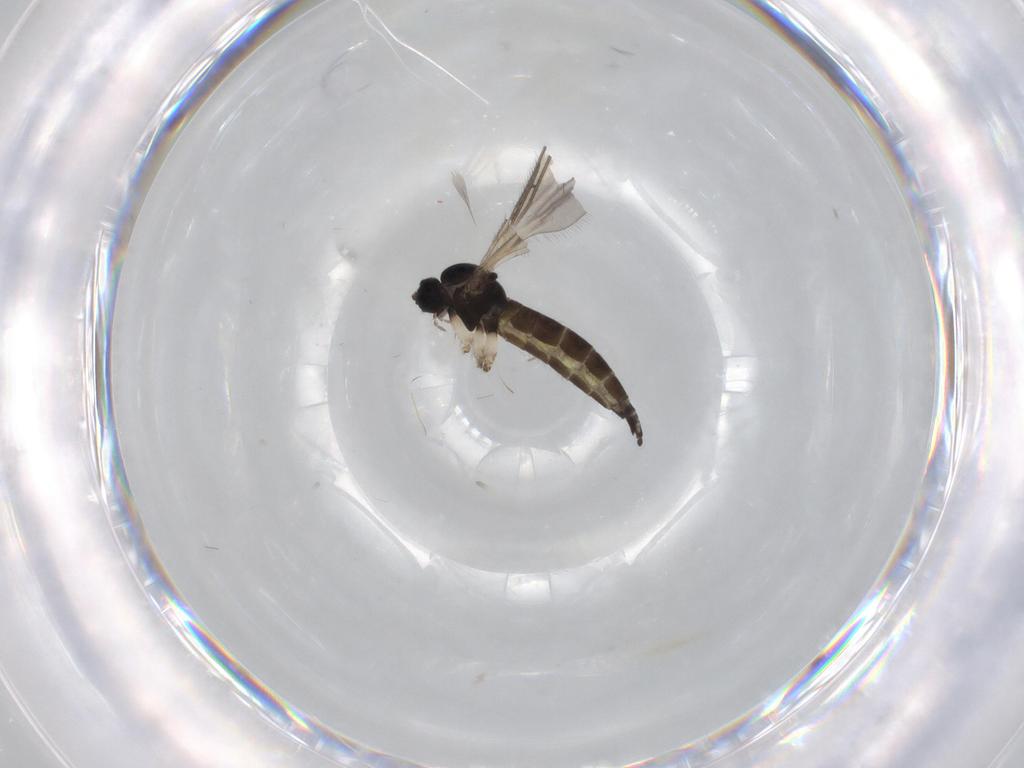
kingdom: Animalia
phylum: Arthropoda
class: Insecta
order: Diptera
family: Sciaridae
